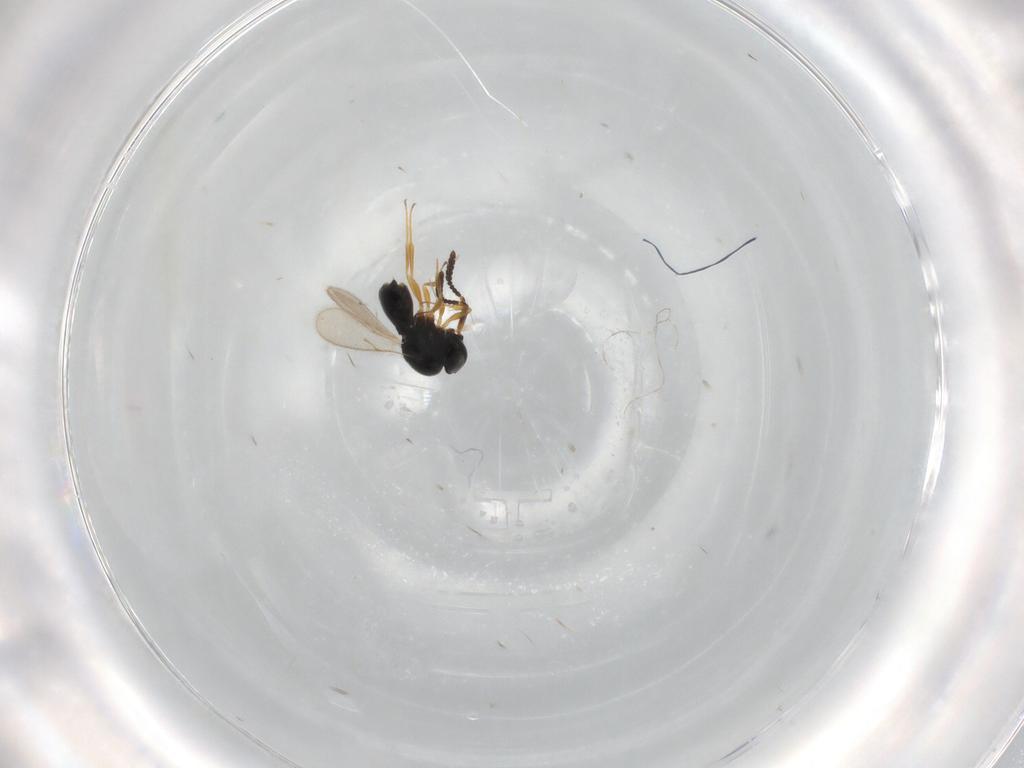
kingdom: Animalia
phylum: Arthropoda
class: Insecta
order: Hymenoptera
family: Scelionidae
